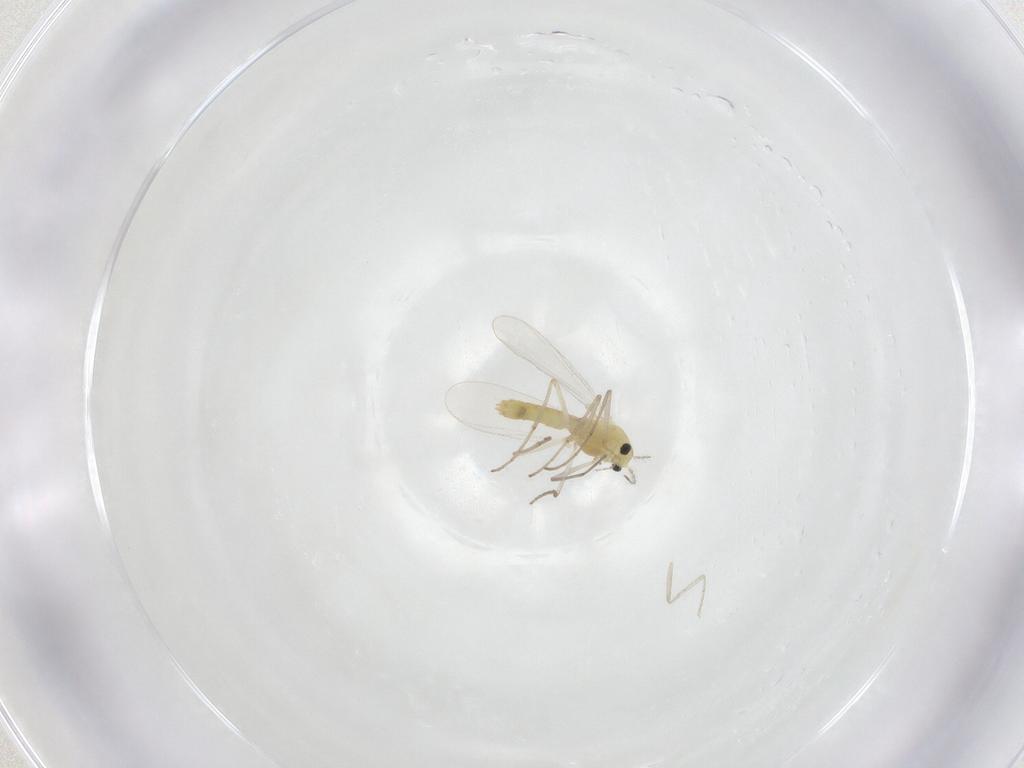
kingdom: Animalia
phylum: Arthropoda
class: Insecta
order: Diptera
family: Chironomidae
